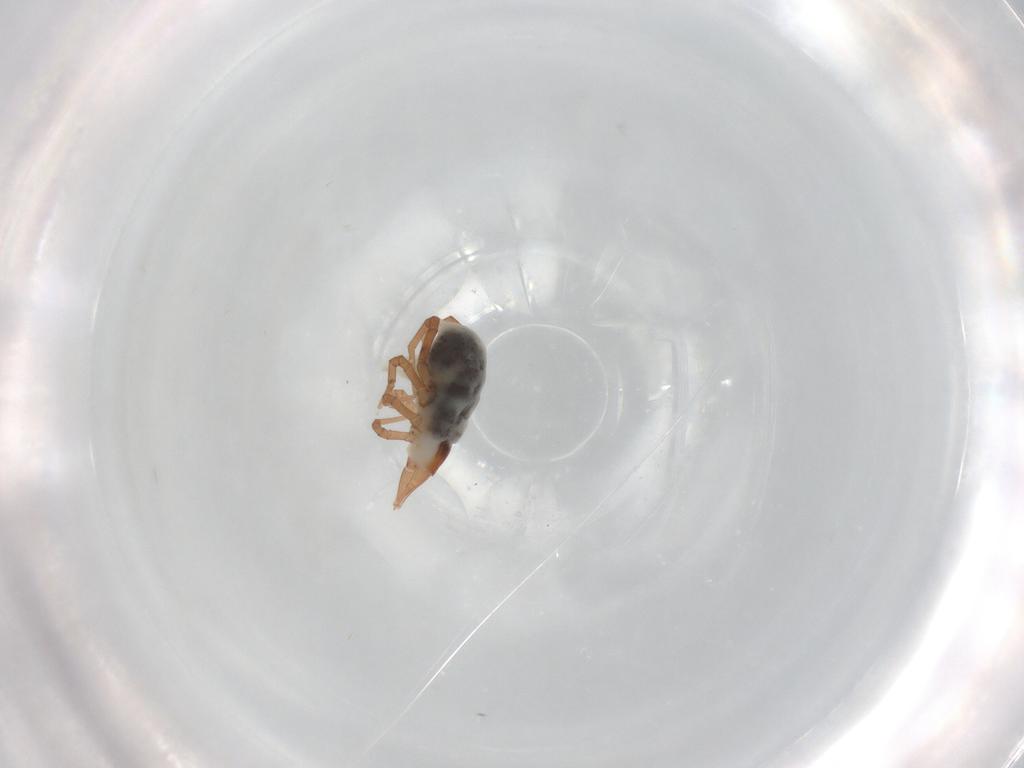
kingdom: Animalia
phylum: Arthropoda
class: Arachnida
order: Trombidiformes
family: Bdellidae
